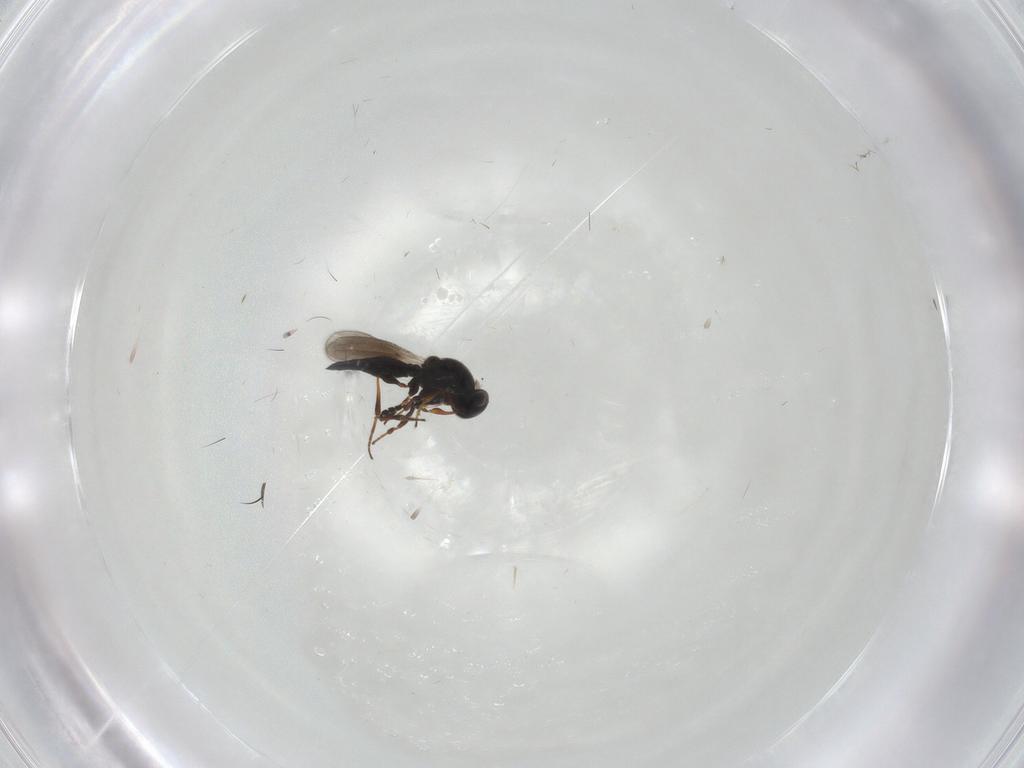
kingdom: Animalia
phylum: Arthropoda
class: Insecta
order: Hymenoptera
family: Platygastridae
